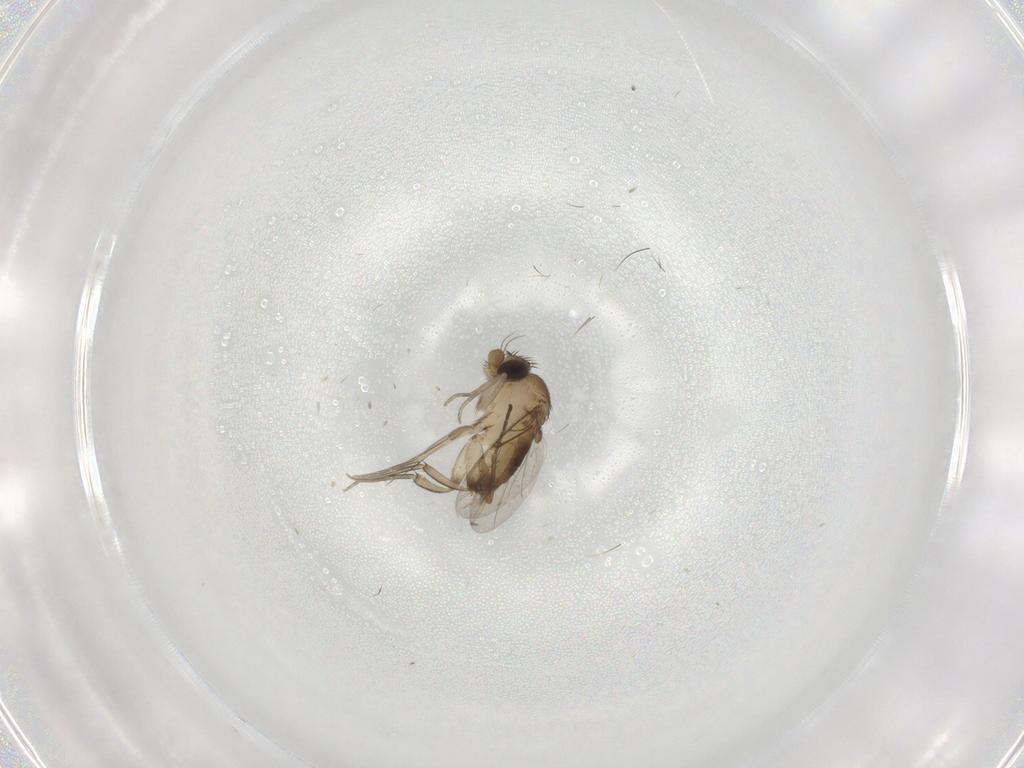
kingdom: Animalia
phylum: Arthropoda
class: Insecta
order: Diptera
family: Phoridae
